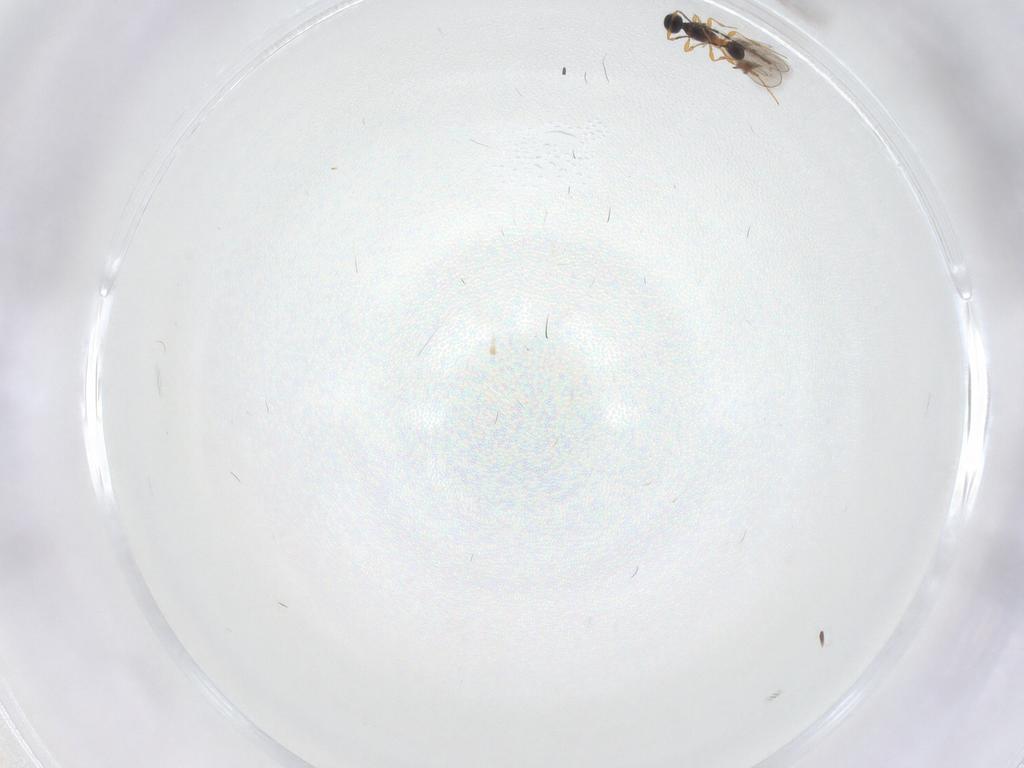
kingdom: Animalia
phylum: Arthropoda
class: Insecta
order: Diptera
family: Psychodidae
